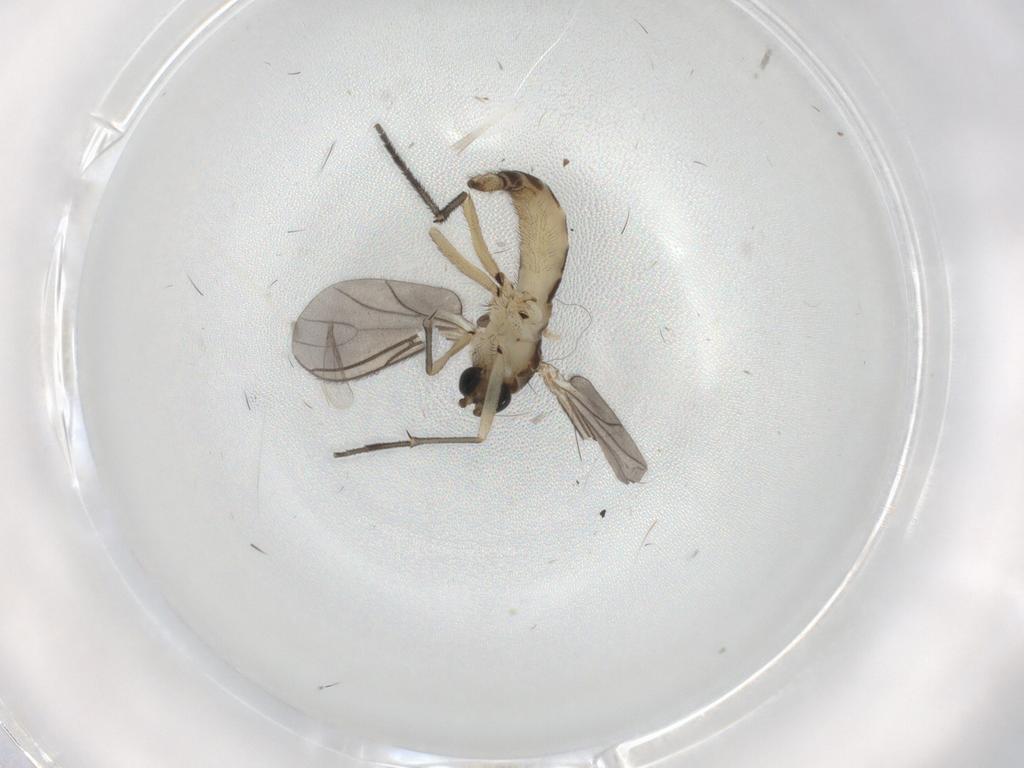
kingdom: Animalia
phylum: Arthropoda
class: Insecta
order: Diptera
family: Sciaridae
